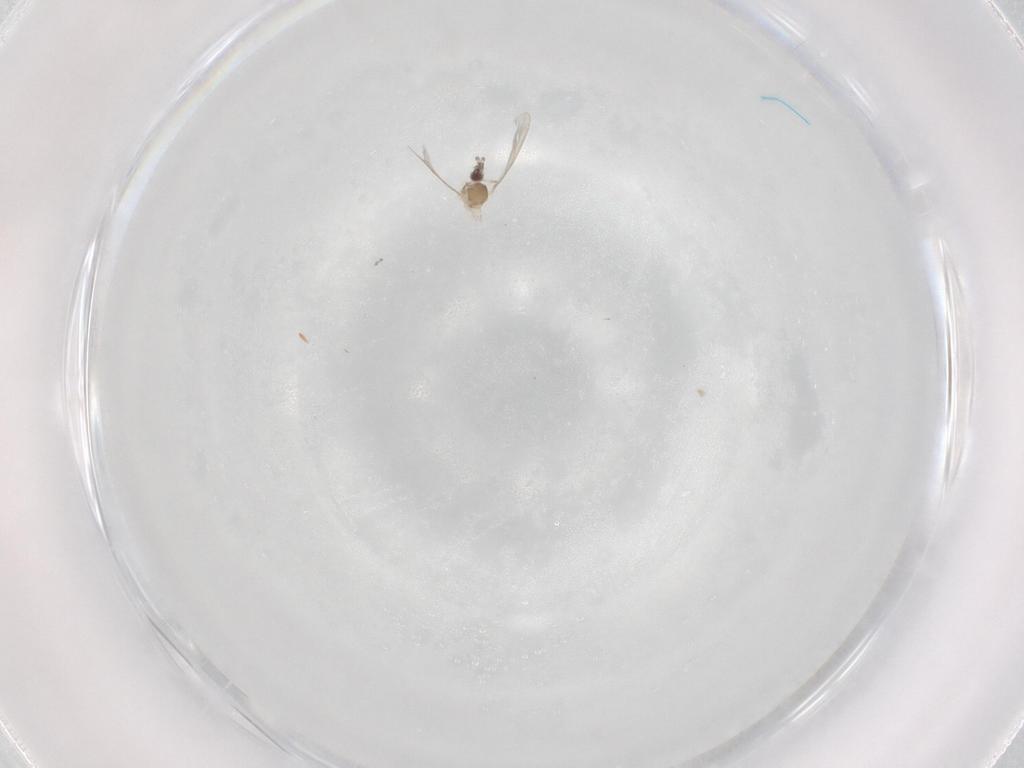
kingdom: Animalia
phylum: Arthropoda
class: Insecta
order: Diptera
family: Cecidomyiidae
